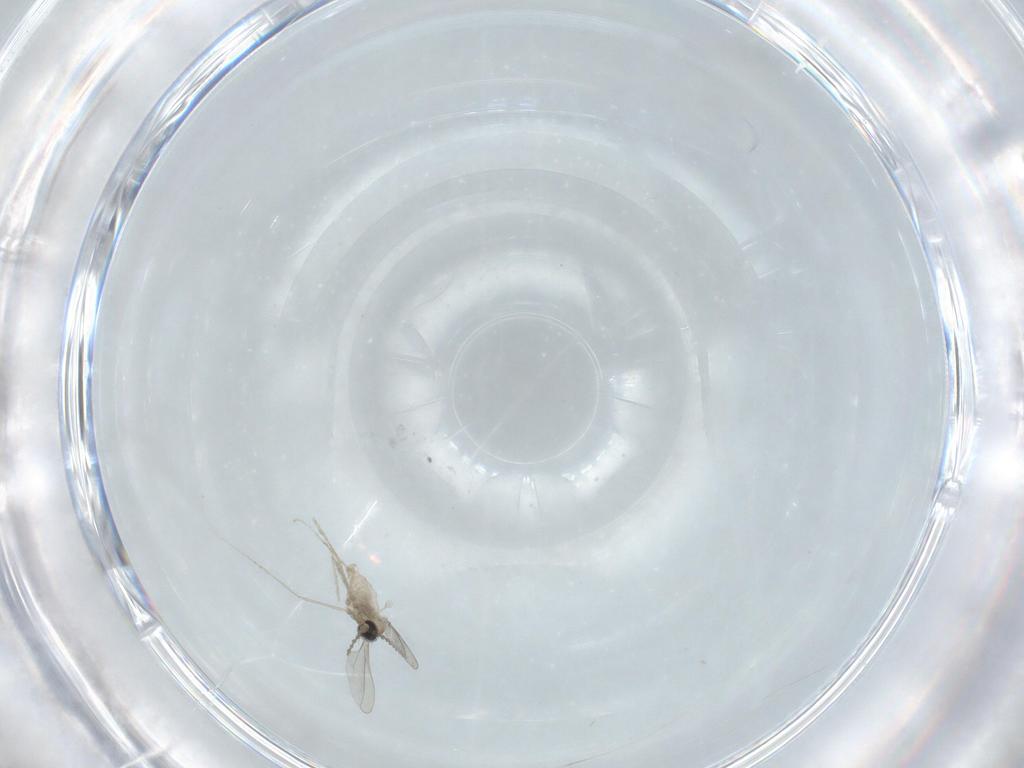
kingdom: Animalia
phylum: Arthropoda
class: Insecta
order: Diptera
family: Cecidomyiidae
